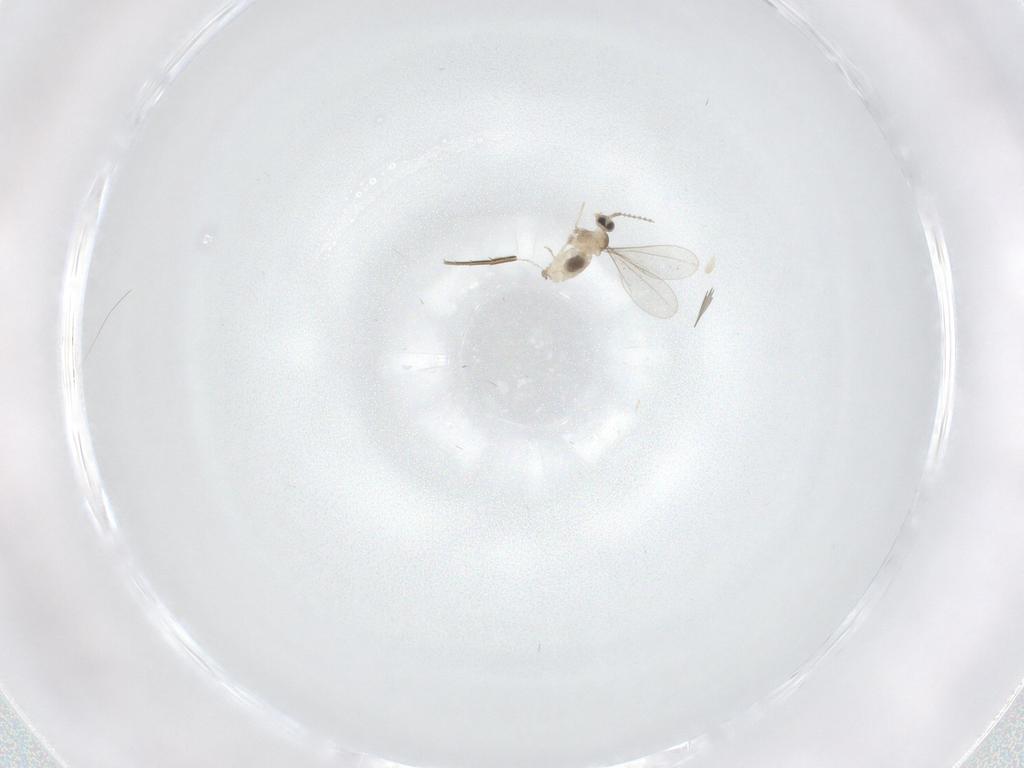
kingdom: Animalia
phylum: Arthropoda
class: Insecta
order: Diptera
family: Cecidomyiidae
